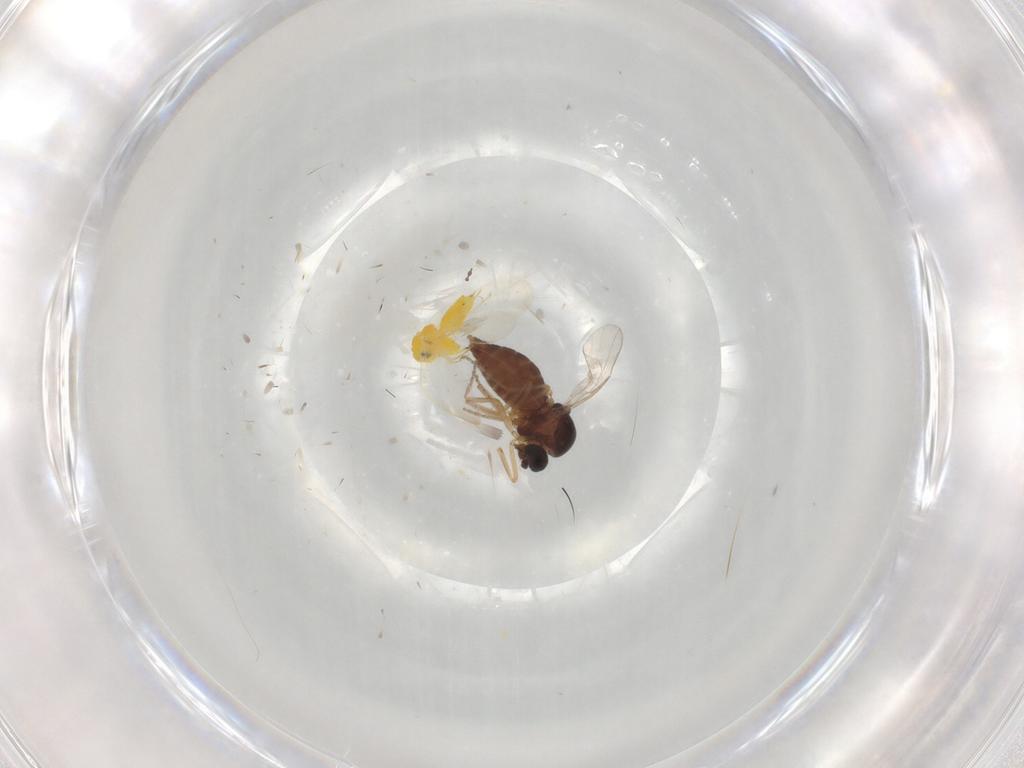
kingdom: Animalia
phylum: Arthropoda
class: Insecta
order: Diptera
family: Ceratopogonidae
